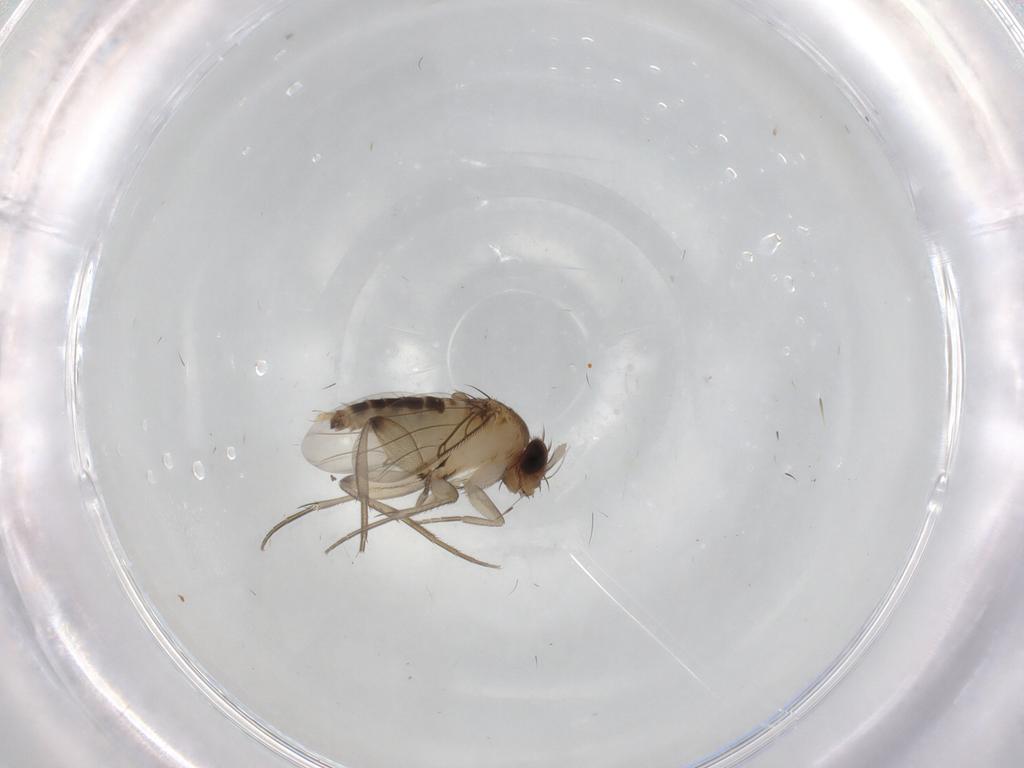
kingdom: Animalia
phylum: Arthropoda
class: Insecta
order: Diptera
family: Phoridae
